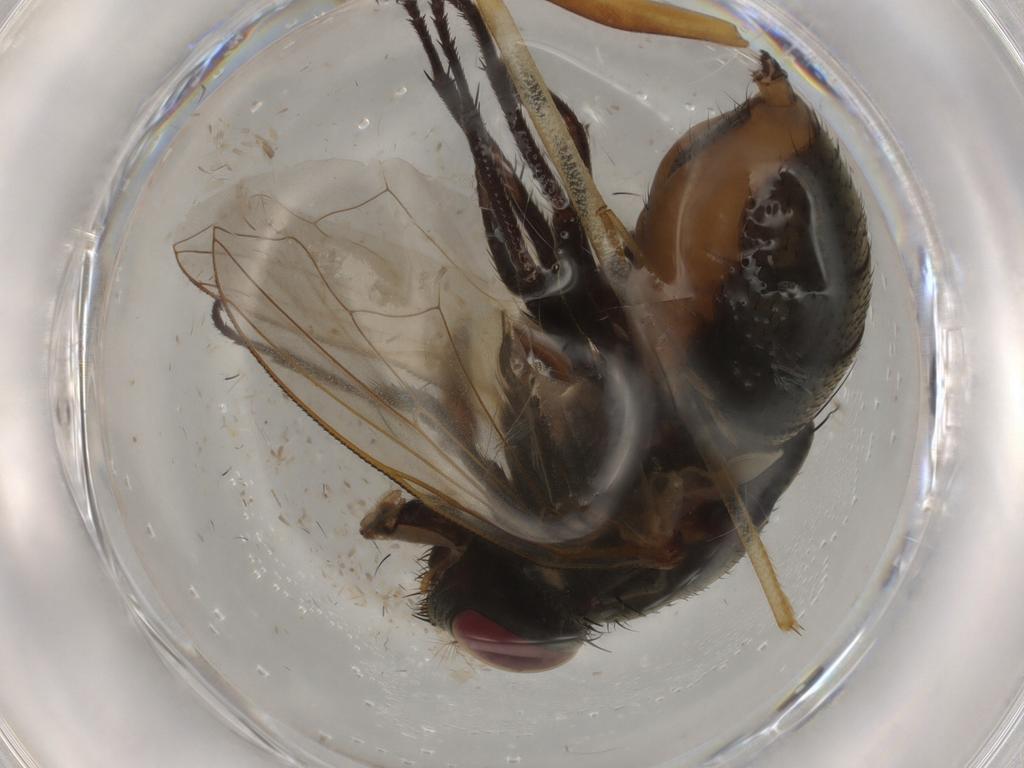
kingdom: Animalia
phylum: Arthropoda
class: Insecta
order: Diptera
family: Muscidae
